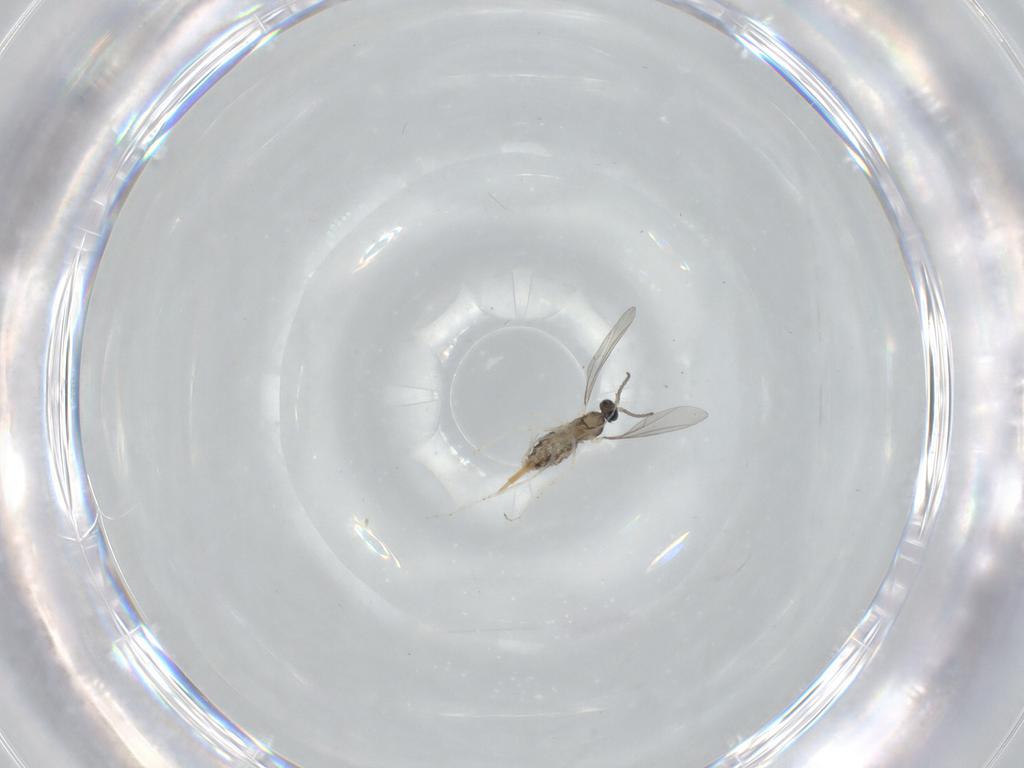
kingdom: Animalia
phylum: Arthropoda
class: Insecta
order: Diptera
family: Cecidomyiidae
